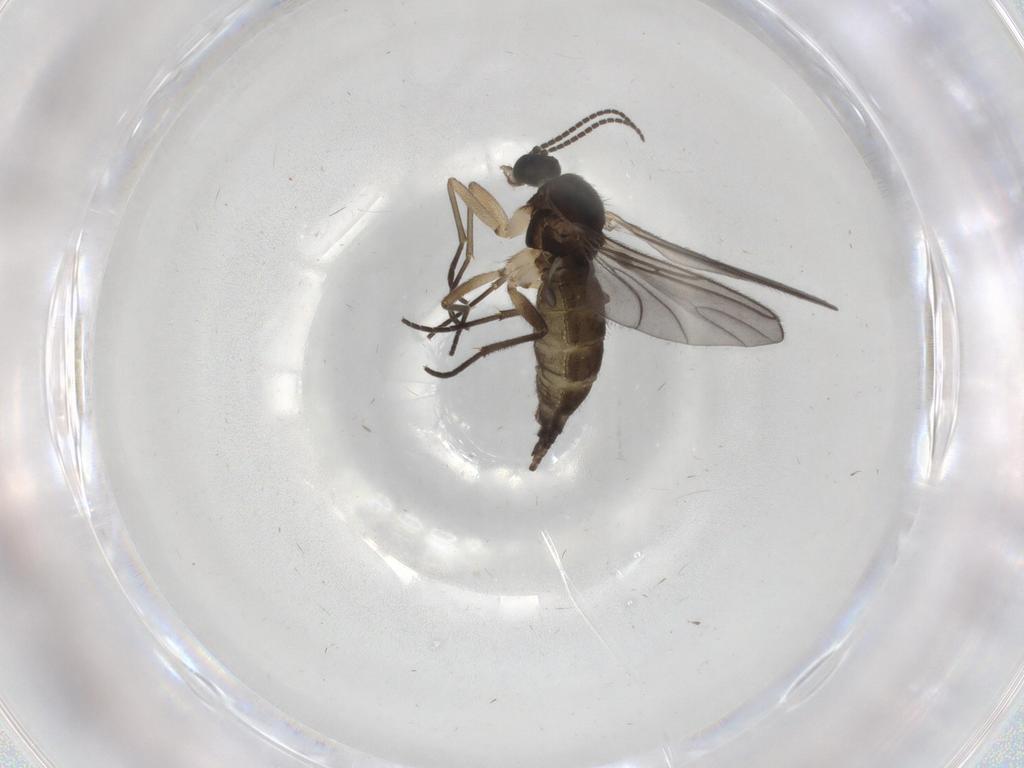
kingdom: Animalia
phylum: Arthropoda
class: Insecta
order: Diptera
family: Sciaridae
